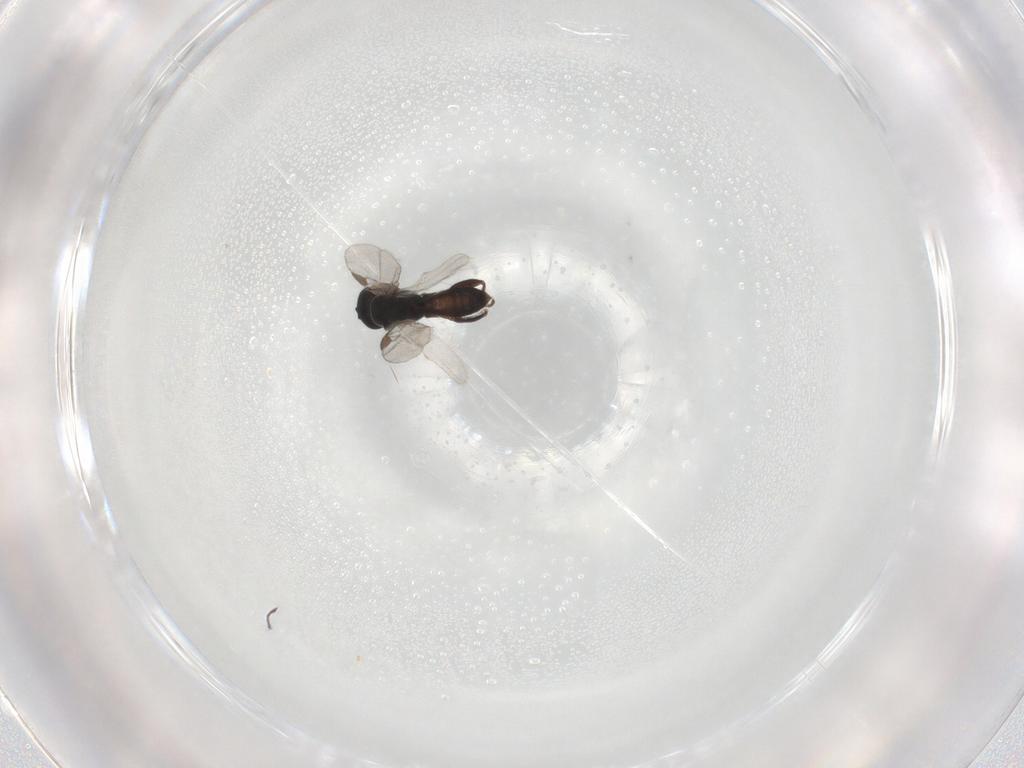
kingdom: Animalia
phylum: Arthropoda
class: Insecta
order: Hymenoptera
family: Braconidae
